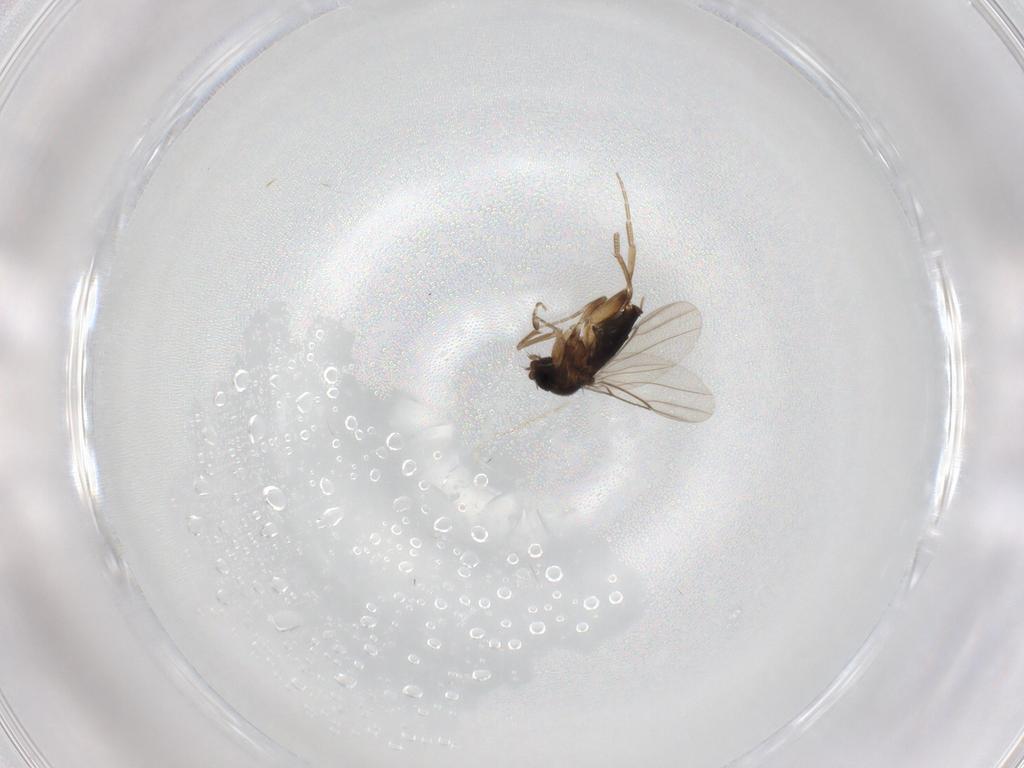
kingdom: Animalia
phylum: Arthropoda
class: Insecta
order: Diptera
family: Phoridae
